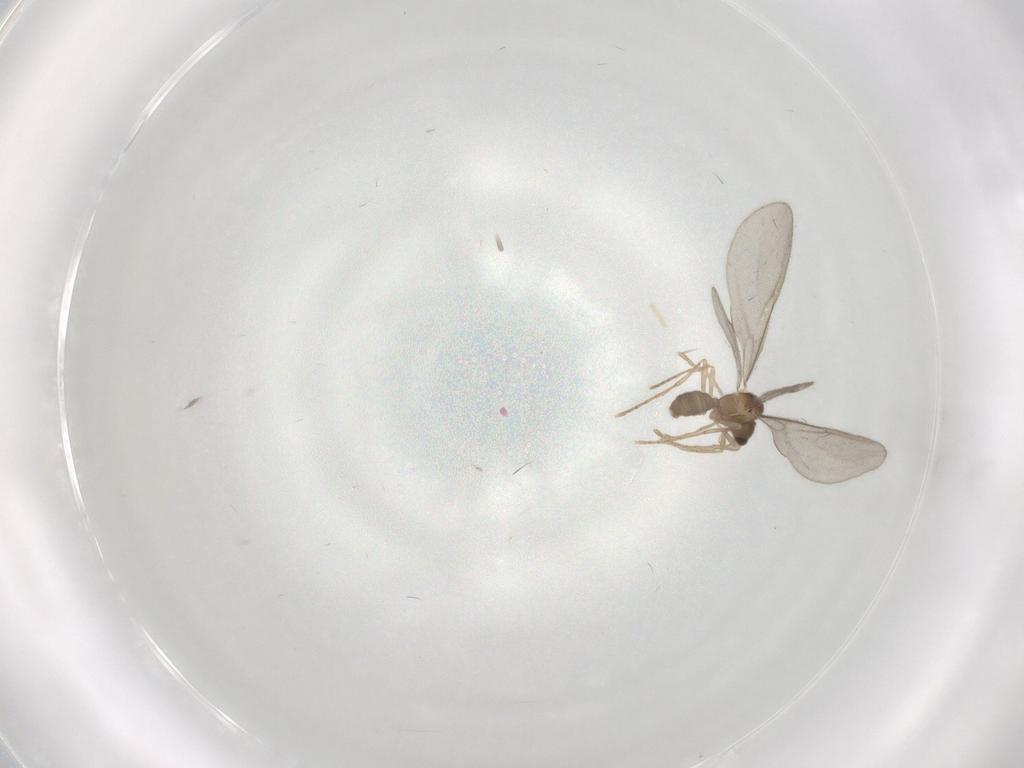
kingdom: Animalia
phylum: Arthropoda
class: Insecta
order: Hymenoptera
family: Formicidae
